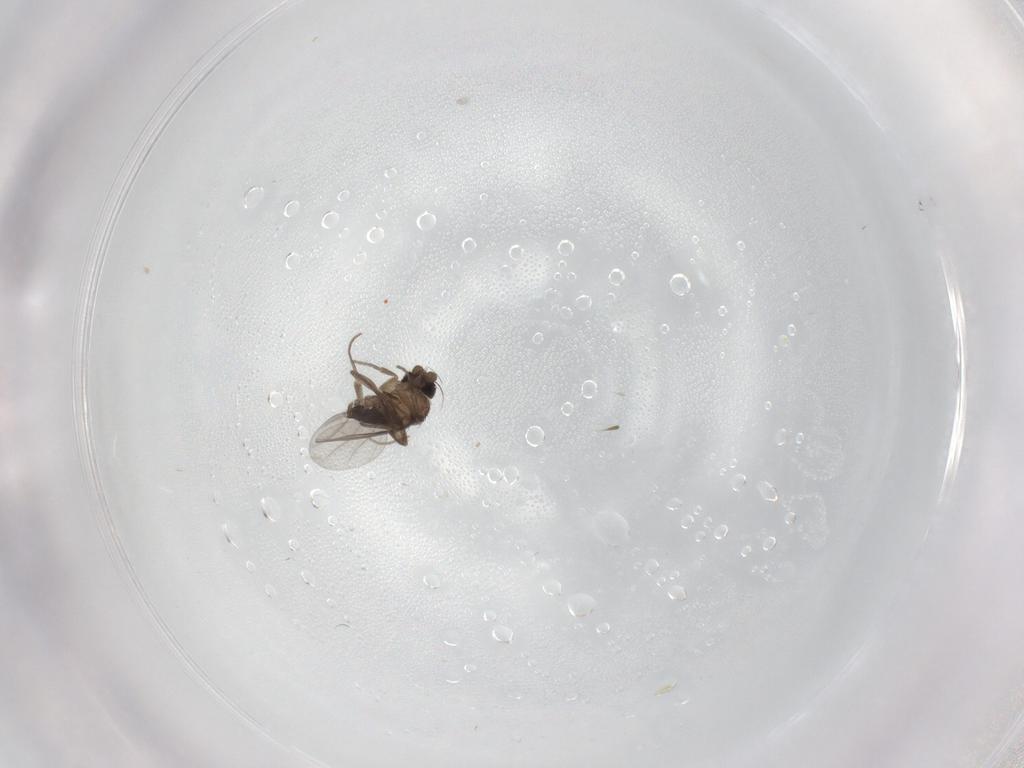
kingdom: Animalia
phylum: Arthropoda
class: Insecta
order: Diptera
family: Phoridae
